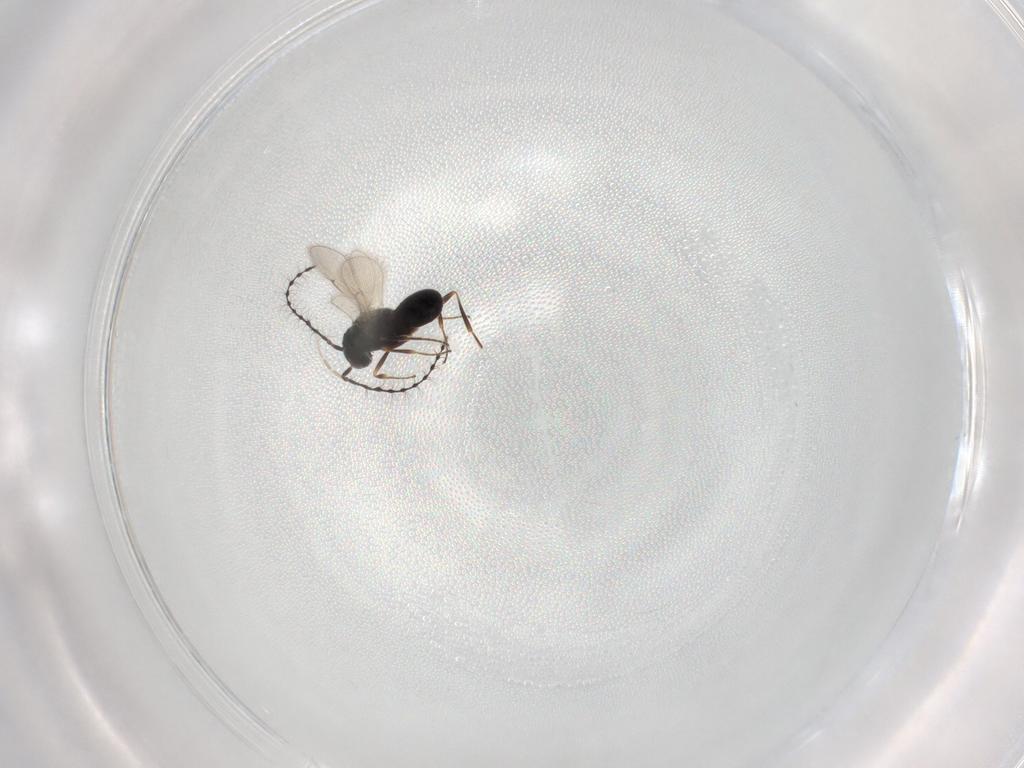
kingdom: Animalia
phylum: Arthropoda
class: Insecta
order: Hymenoptera
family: Scelionidae
